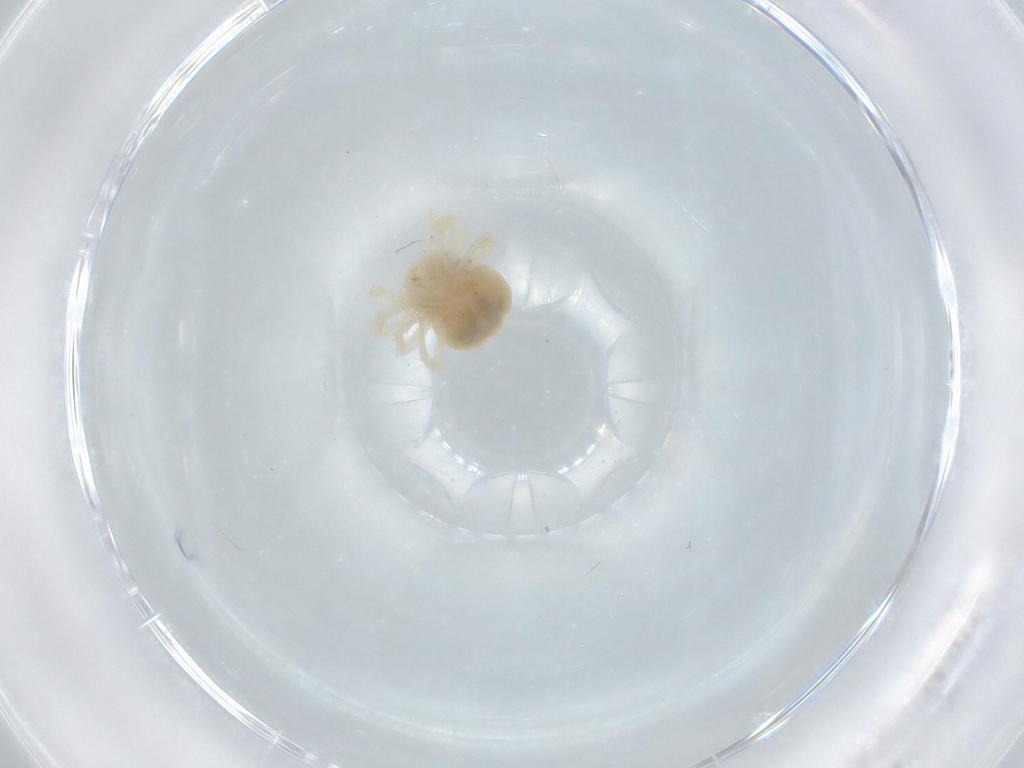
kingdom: Animalia
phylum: Arthropoda
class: Arachnida
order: Trombidiformes
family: Anystidae
